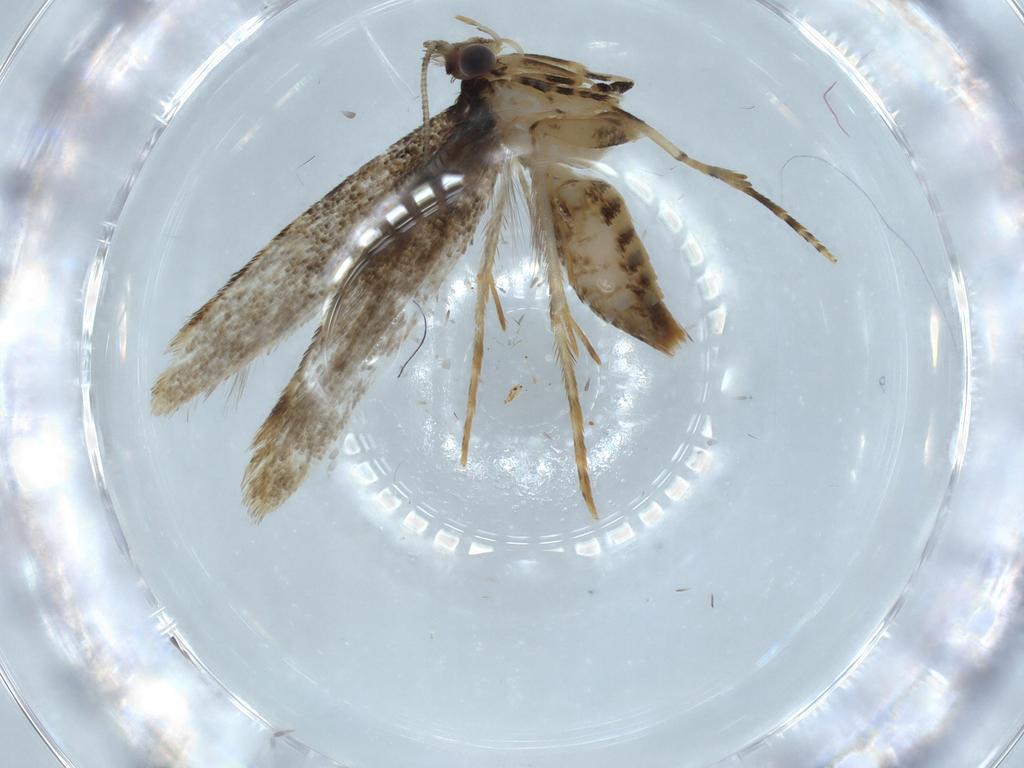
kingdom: Animalia
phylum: Arthropoda
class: Insecta
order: Lepidoptera
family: Tineidae
